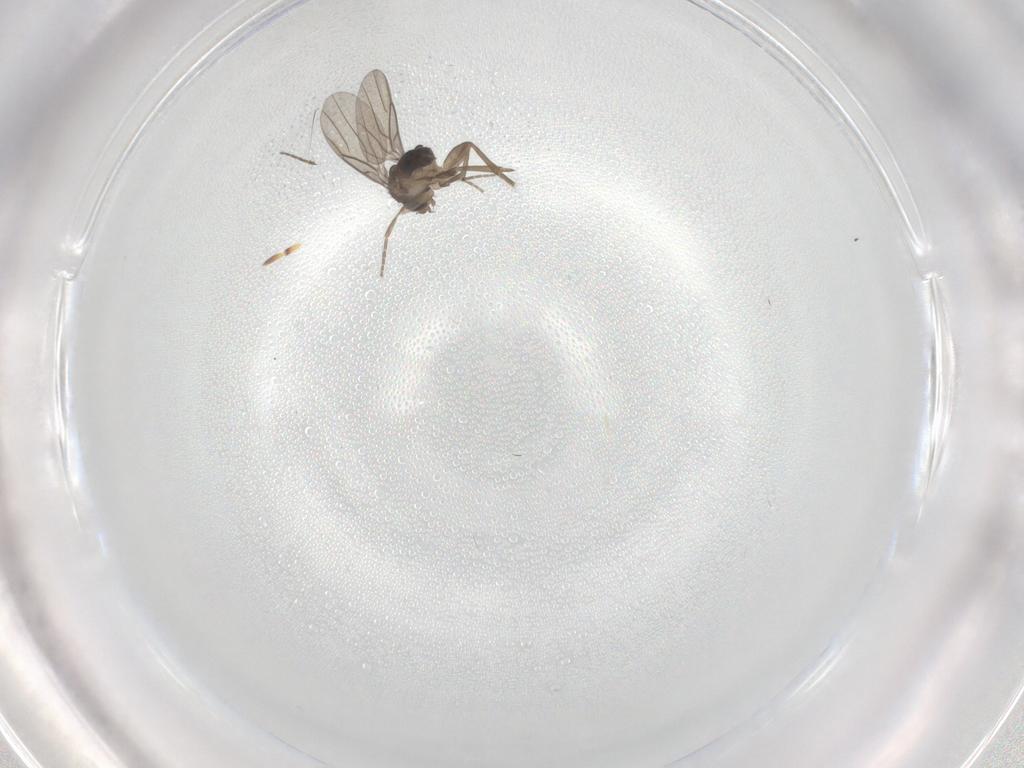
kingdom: Animalia
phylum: Arthropoda
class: Insecta
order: Diptera
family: Phoridae
